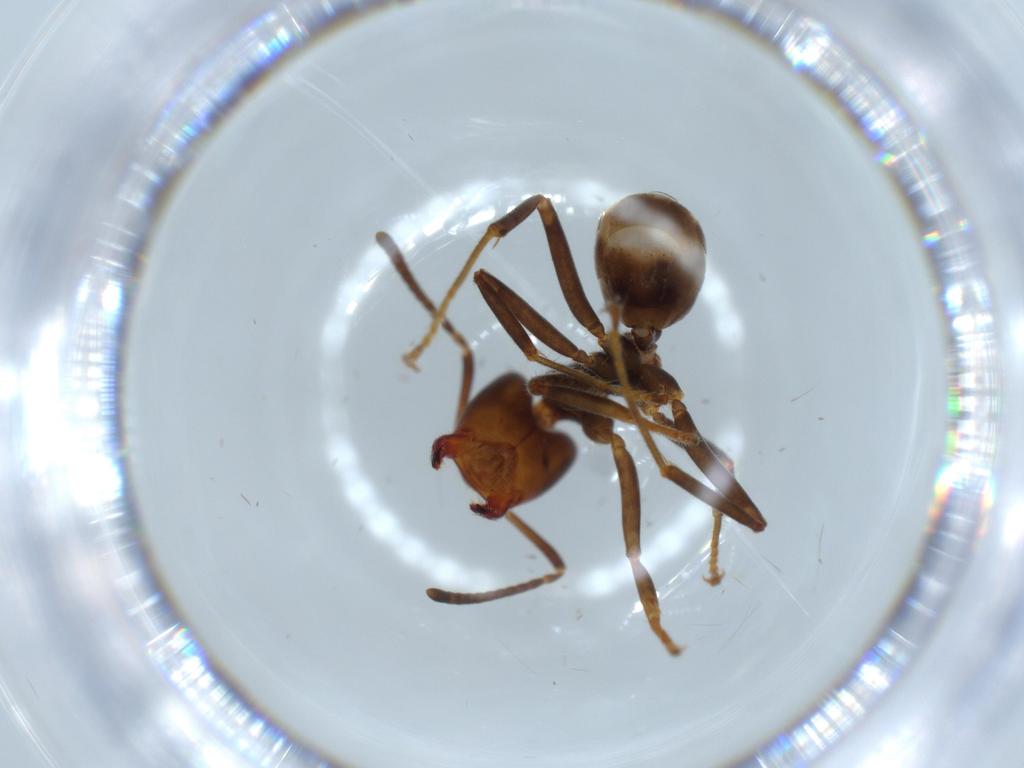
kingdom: Animalia
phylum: Arthropoda
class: Insecta
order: Hymenoptera
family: Formicidae
